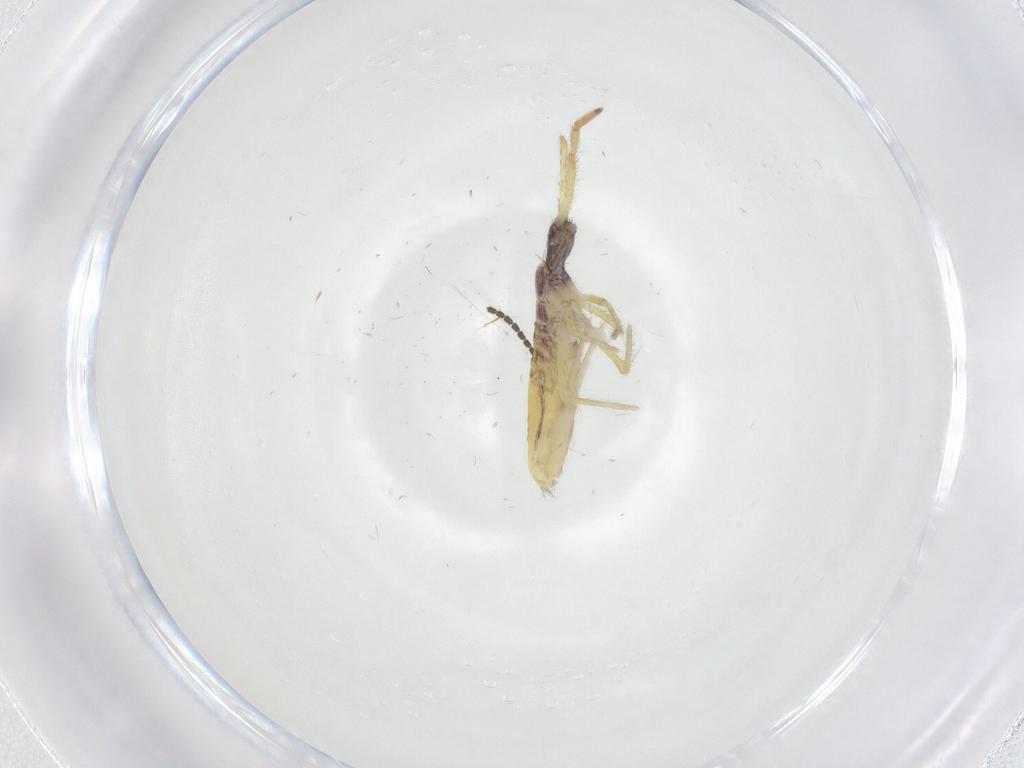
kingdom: Animalia
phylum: Arthropoda
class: Collembola
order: Entomobryomorpha
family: Entomobryidae
